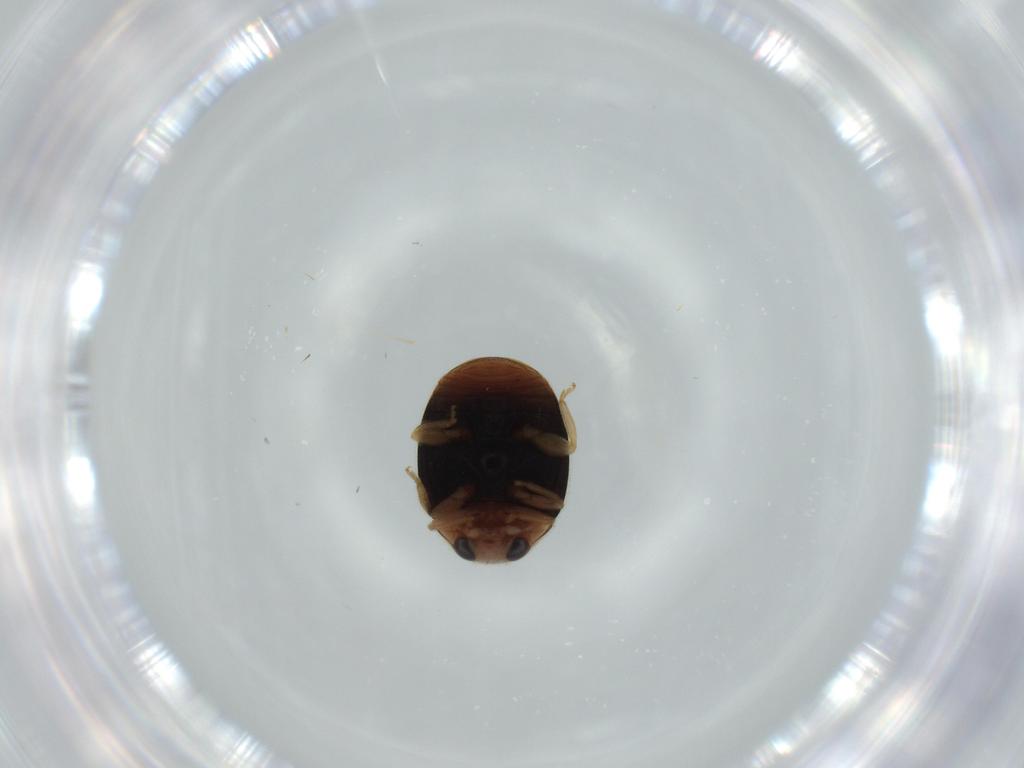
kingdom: Animalia
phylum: Arthropoda
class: Insecta
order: Coleoptera
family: Coccinellidae
